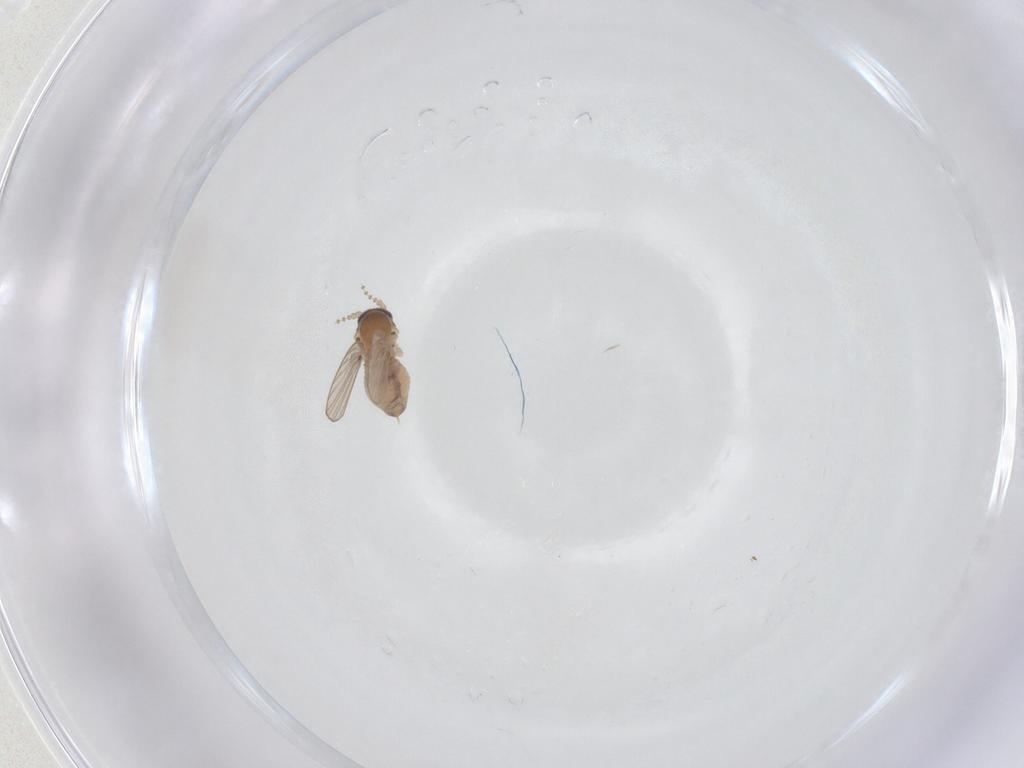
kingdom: Animalia
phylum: Arthropoda
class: Insecta
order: Diptera
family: Psychodidae
